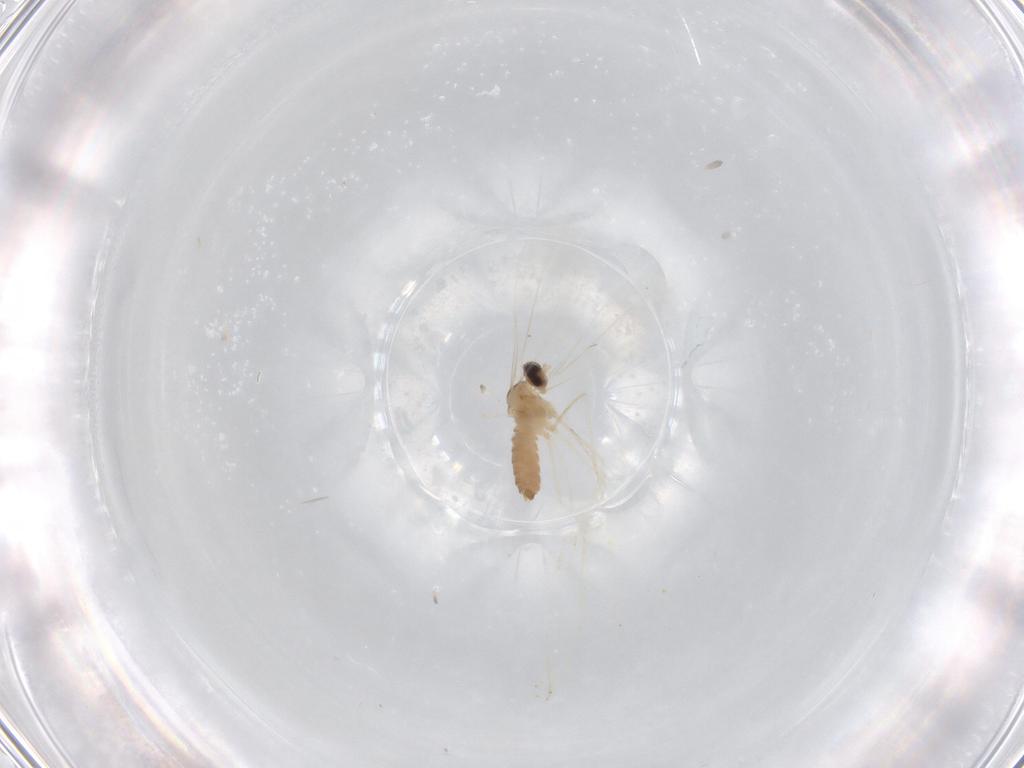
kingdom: Animalia
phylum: Arthropoda
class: Insecta
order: Diptera
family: Cecidomyiidae
